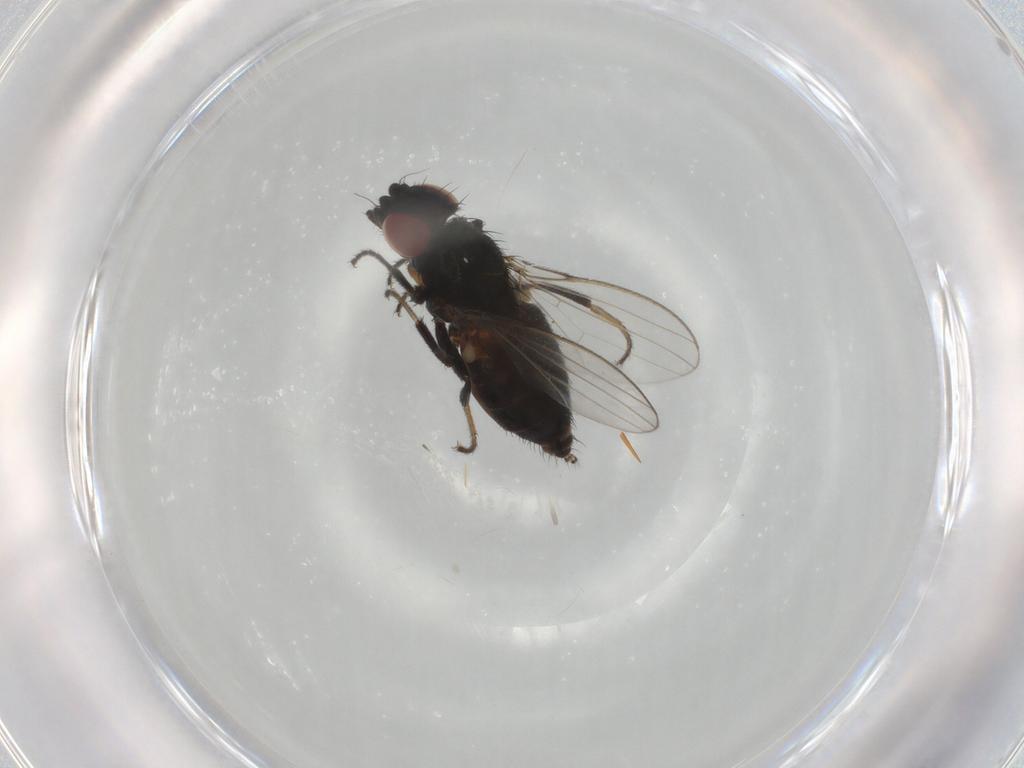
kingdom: Animalia
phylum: Arthropoda
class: Insecta
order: Diptera
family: Milichiidae
